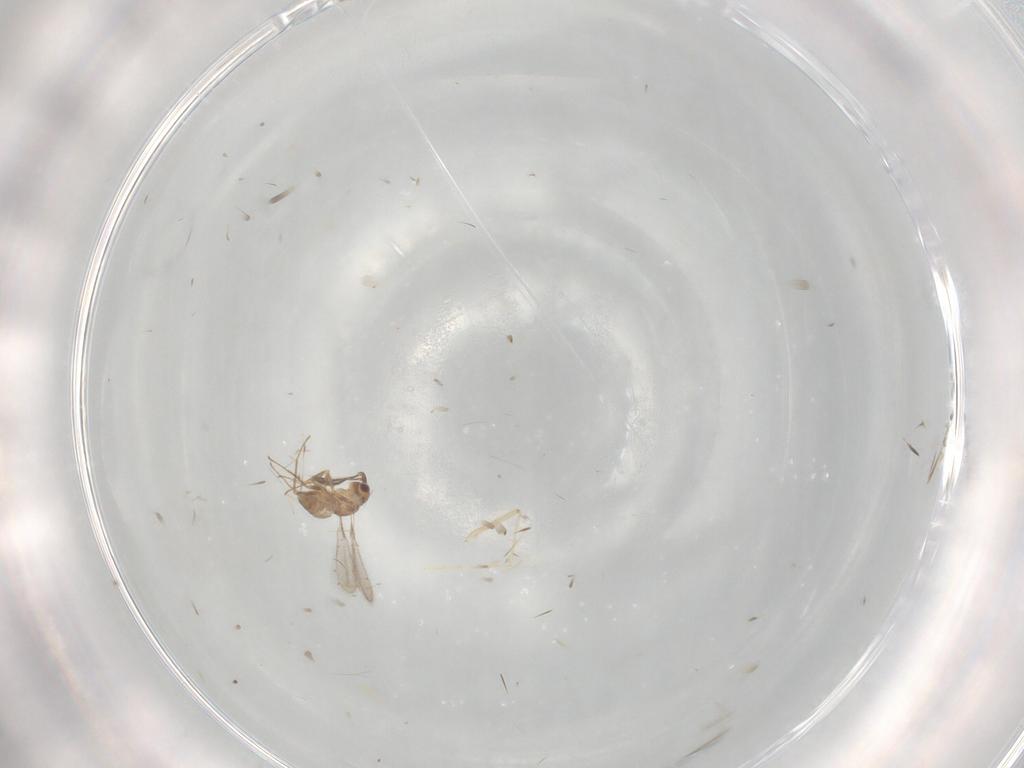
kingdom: Animalia
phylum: Arthropoda
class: Insecta
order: Hymenoptera
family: Mymaridae
